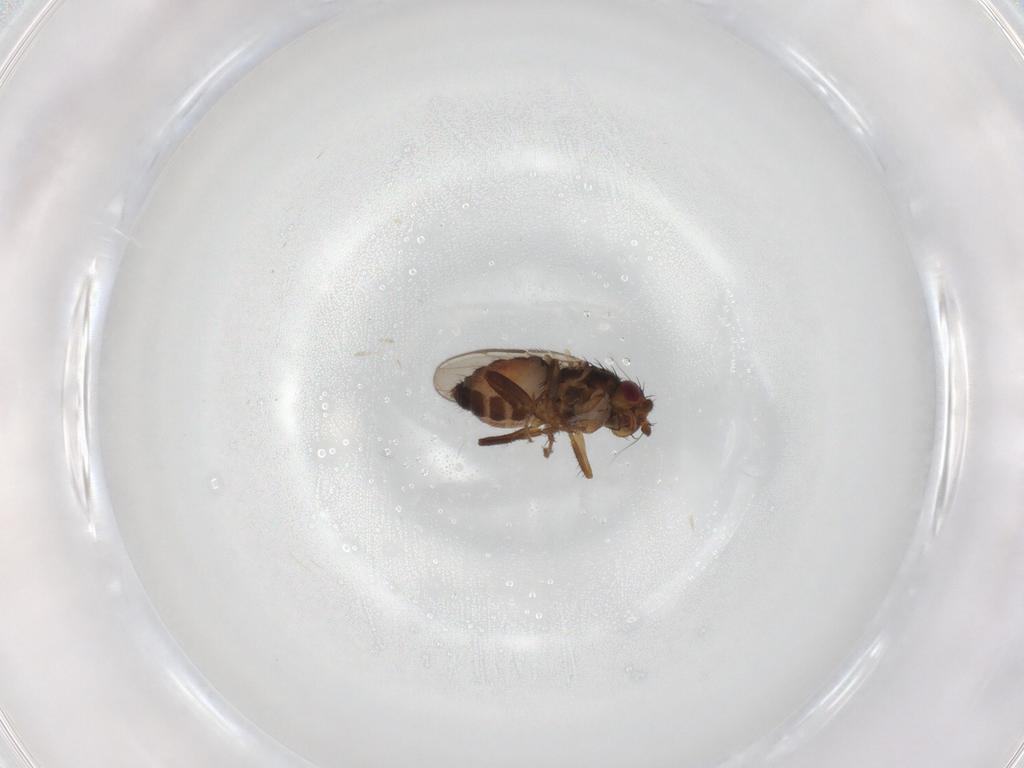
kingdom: Animalia
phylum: Arthropoda
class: Insecta
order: Diptera
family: Chironomidae
